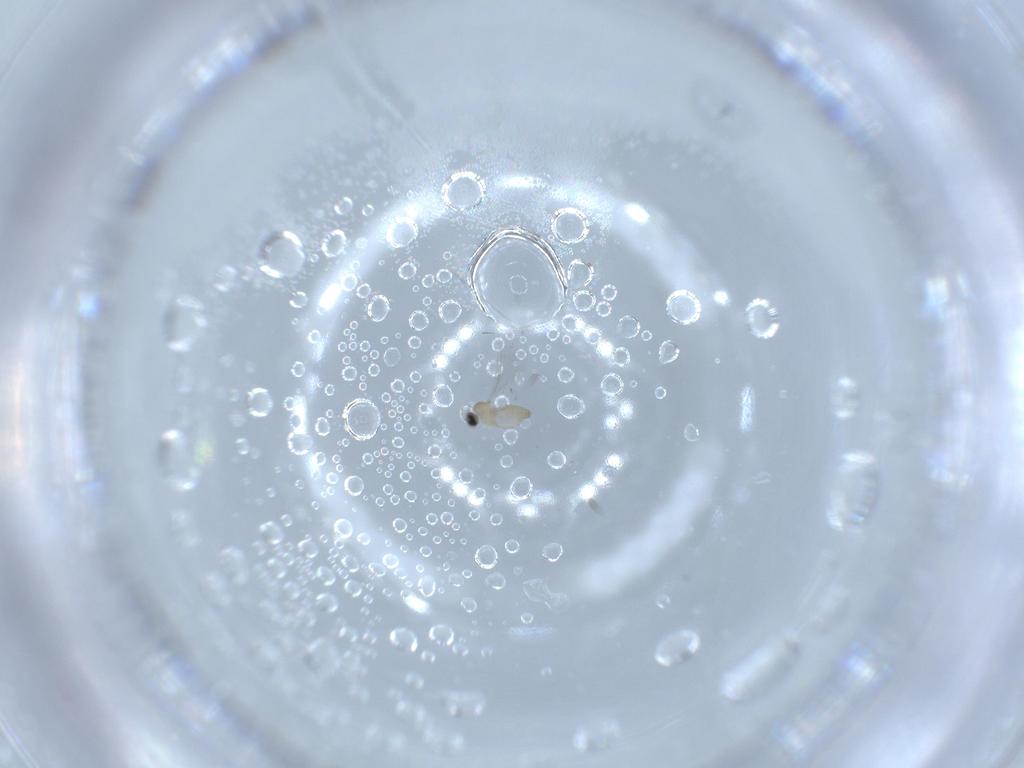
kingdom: Animalia
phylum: Arthropoda
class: Insecta
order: Diptera
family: Cecidomyiidae
